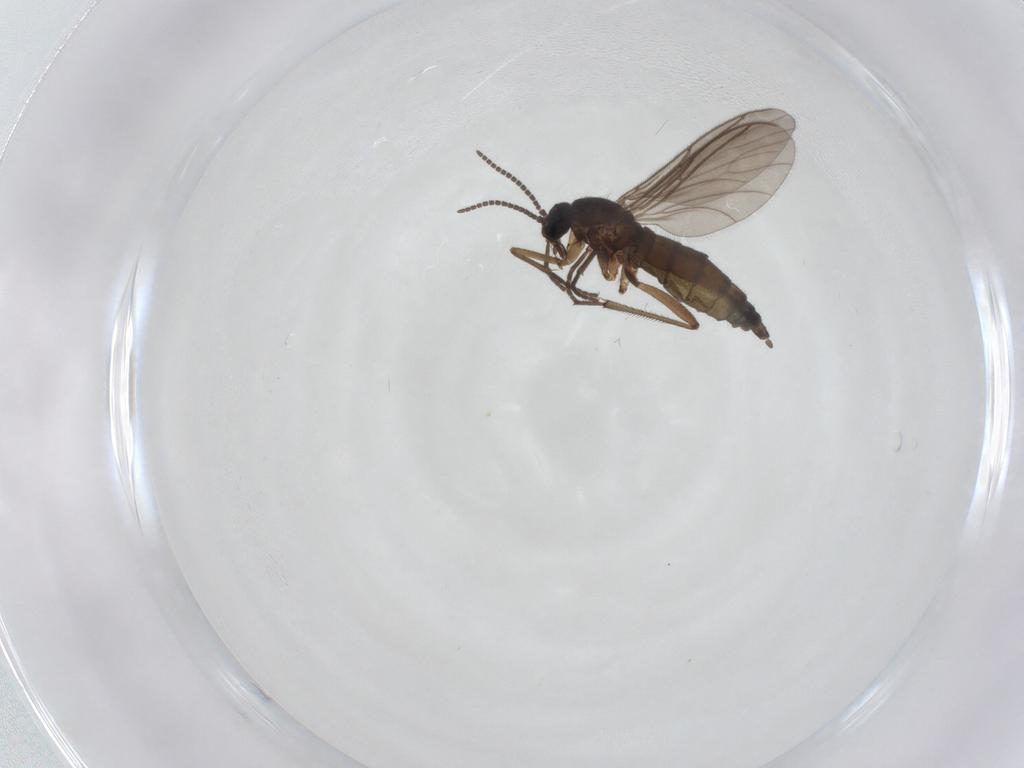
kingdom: Animalia
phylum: Arthropoda
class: Insecta
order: Diptera
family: Sciaridae
